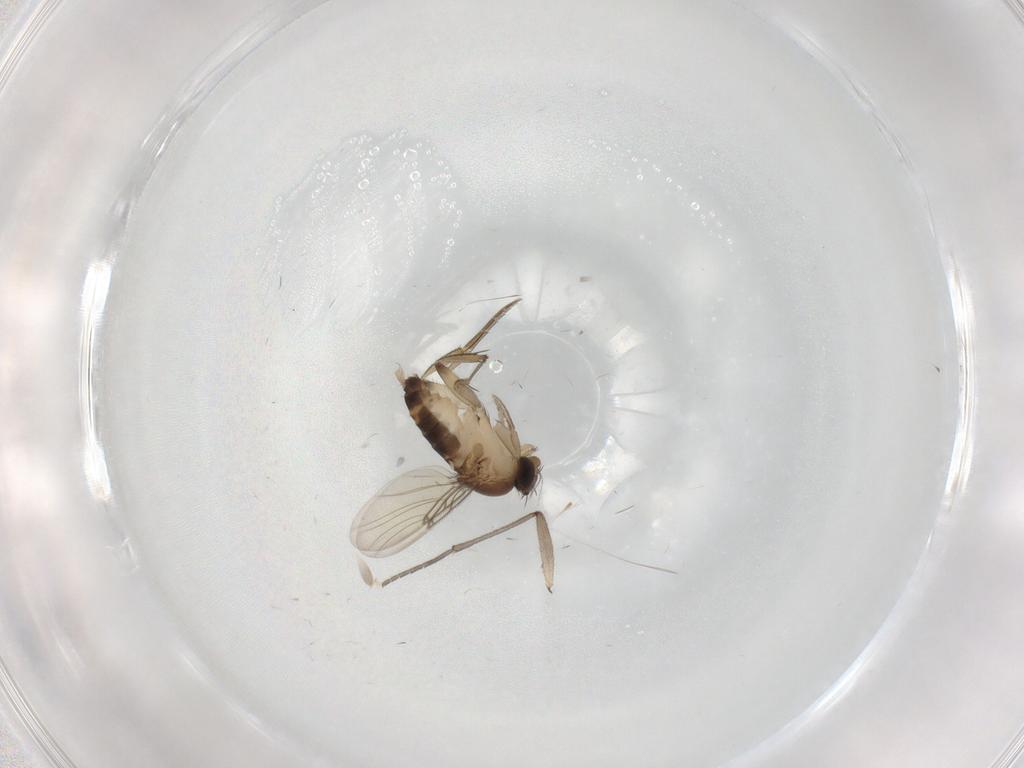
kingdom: Animalia
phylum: Arthropoda
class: Insecta
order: Diptera
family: Sciaridae
